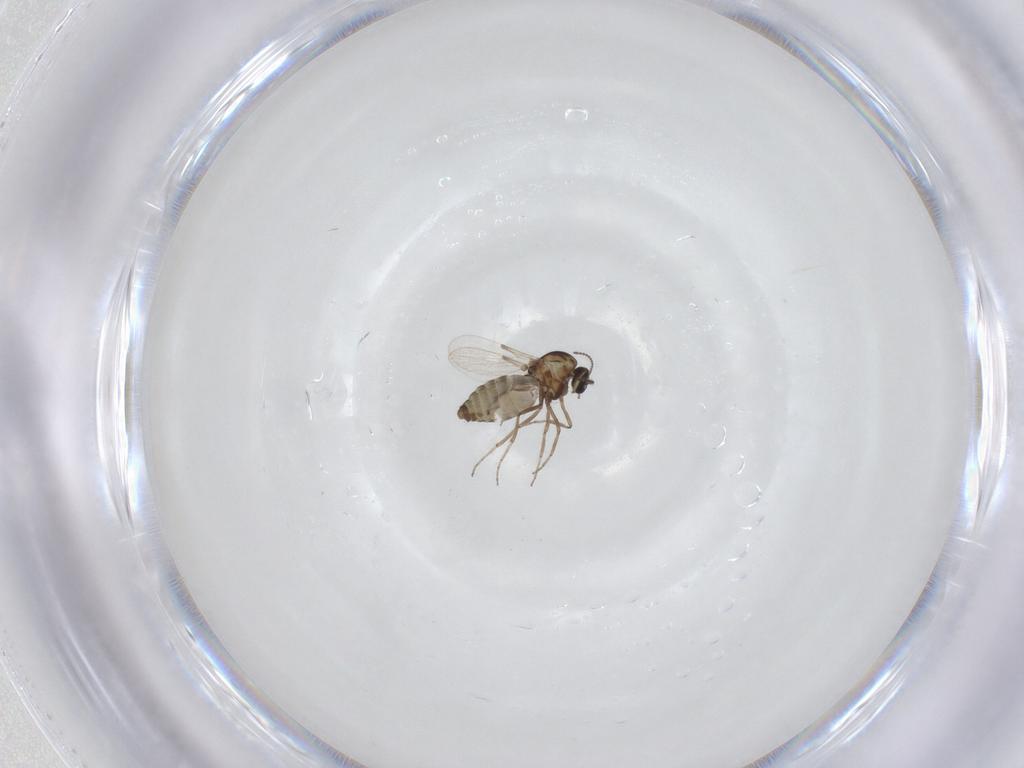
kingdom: Animalia
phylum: Arthropoda
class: Insecta
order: Diptera
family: Ceratopogonidae
